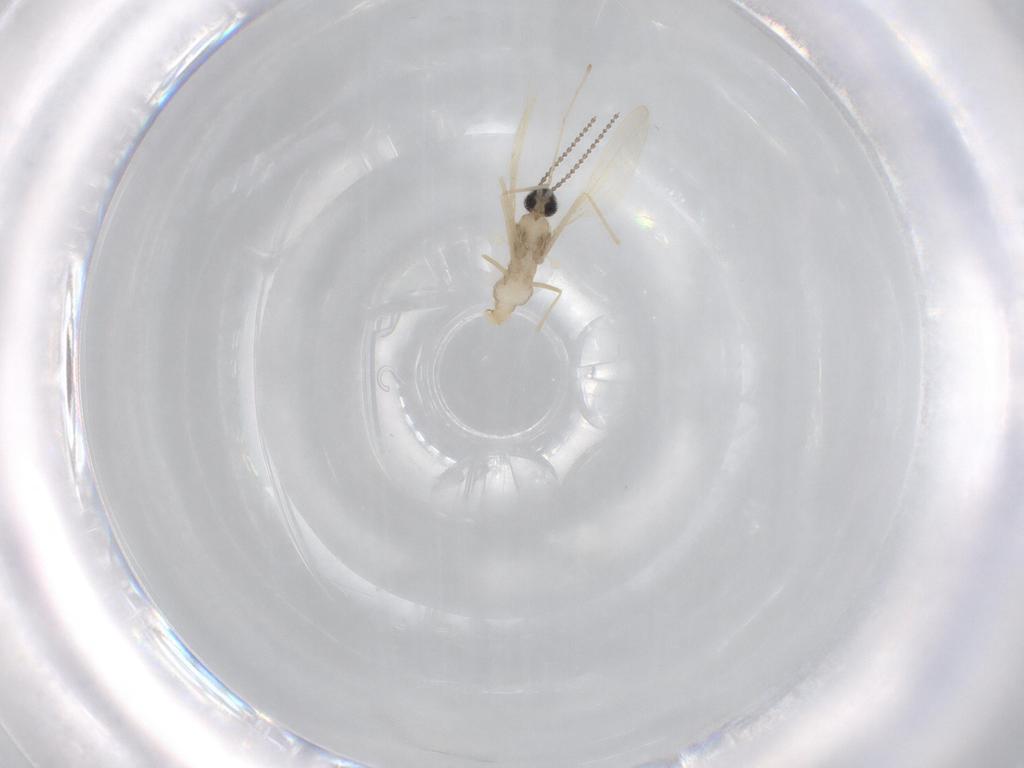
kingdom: Animalia
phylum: Arthropoda
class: Insecta
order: Diptera
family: Cecidomyiidae
